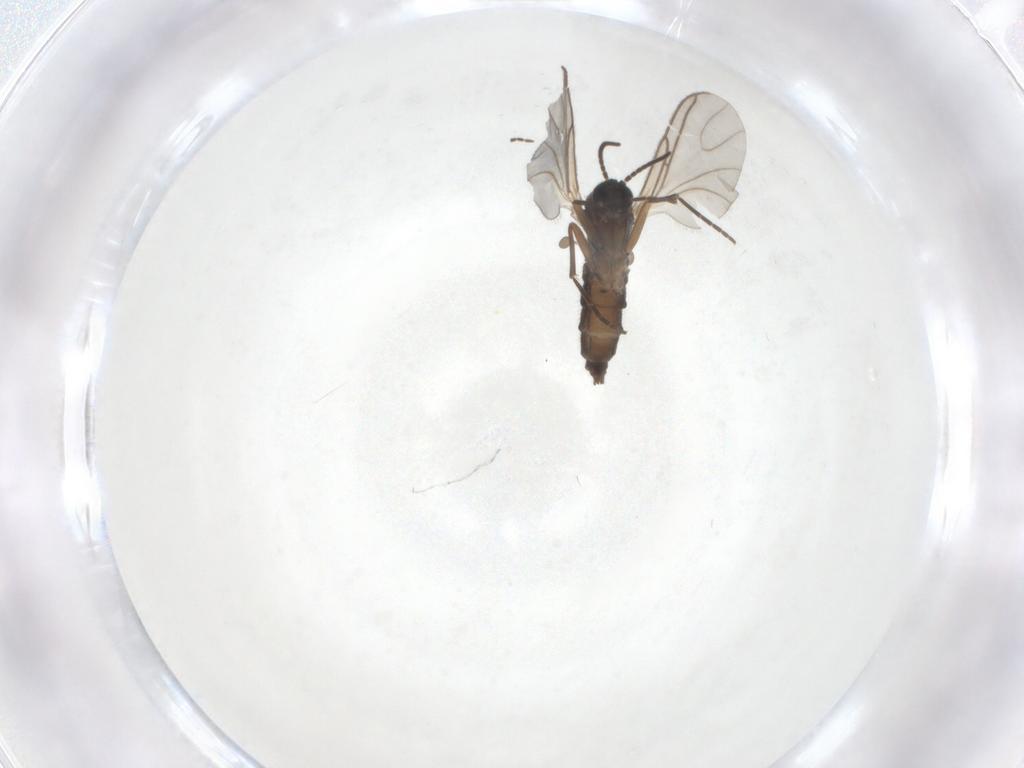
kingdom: Animalia
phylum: Arthropoda
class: Insecta
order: Diptera
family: Sciaridae
